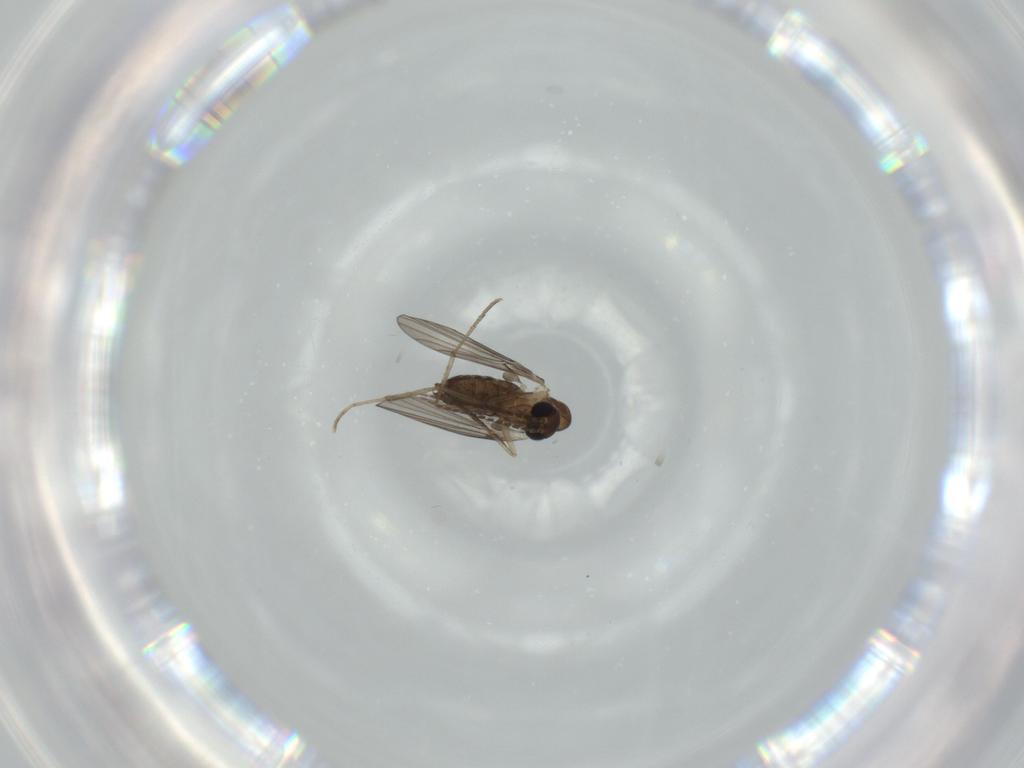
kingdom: Animalia
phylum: Arthropoda
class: Insecta
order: Diptera
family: Psychodidae
